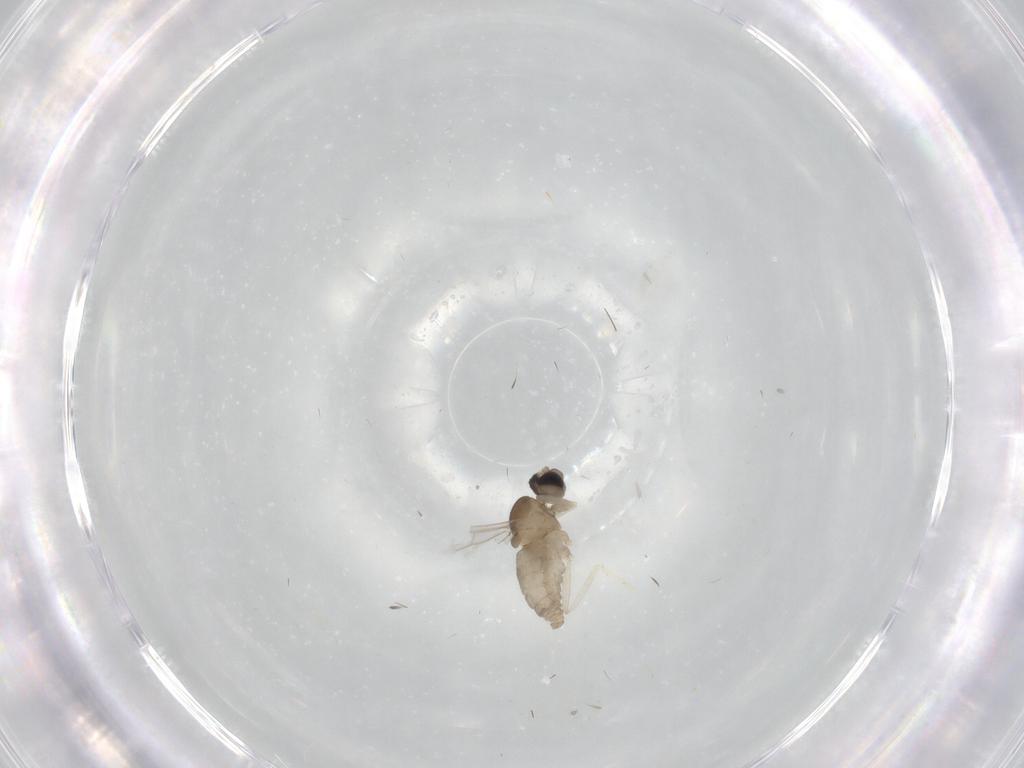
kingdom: Animalia
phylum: Arthropoda
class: Insecta
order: Diptera
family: Cecidomyiidae
